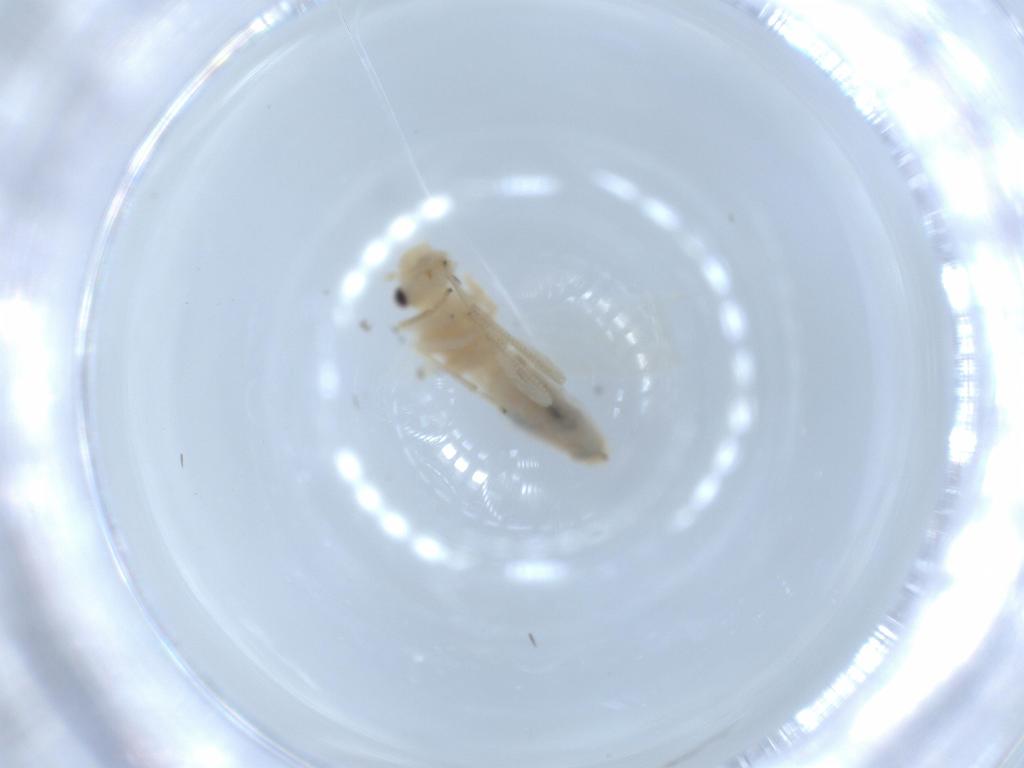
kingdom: Animalia
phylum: Arthropoda
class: Insecta
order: Psocodea
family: Caeciliusidae
